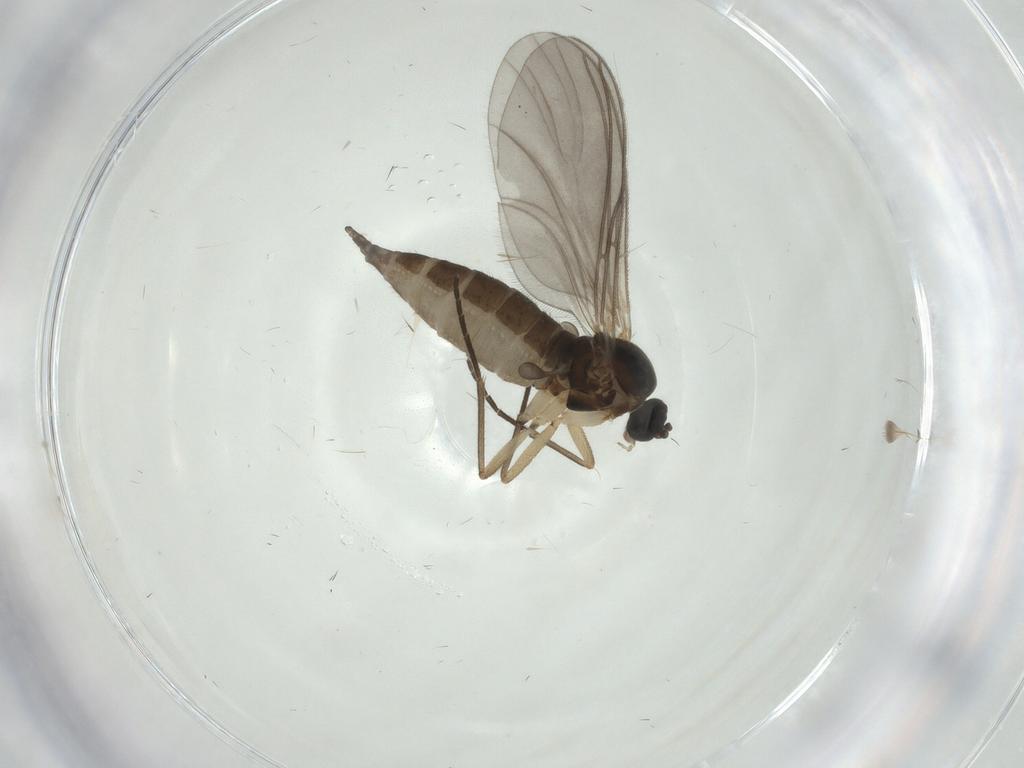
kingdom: Animalia
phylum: Arthropoda
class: Insecta
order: Diptera
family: Sciaridae
